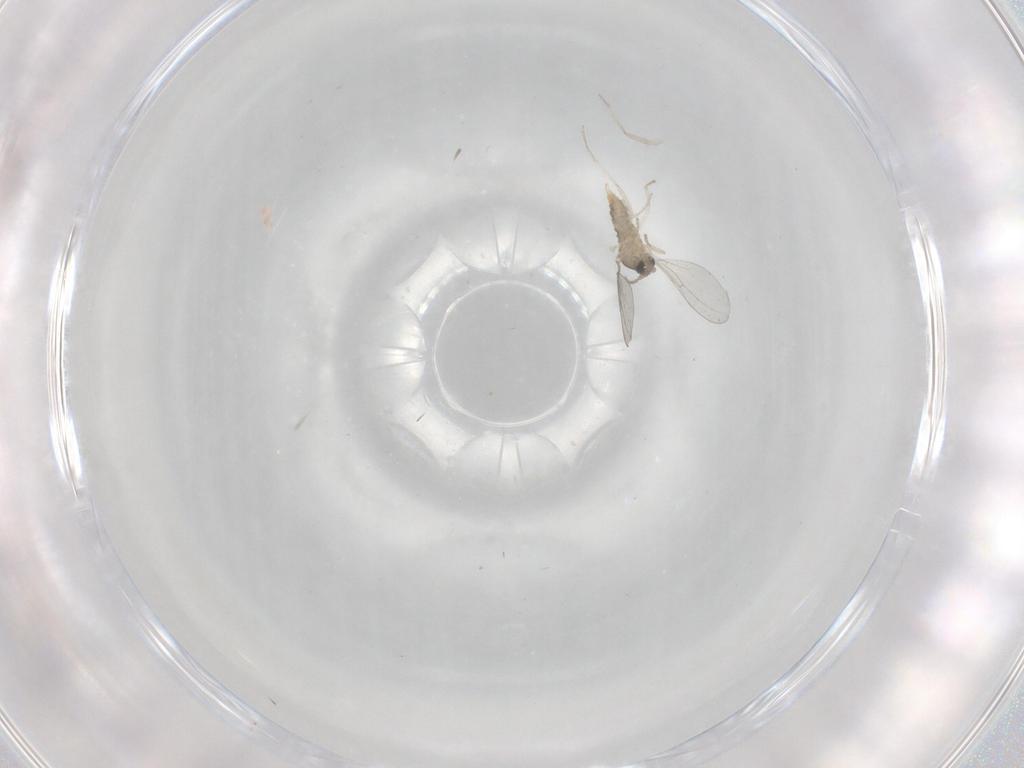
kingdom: Animalia
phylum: Arthropoda
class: Insecta
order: Diptera
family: Cecidomyiidae
